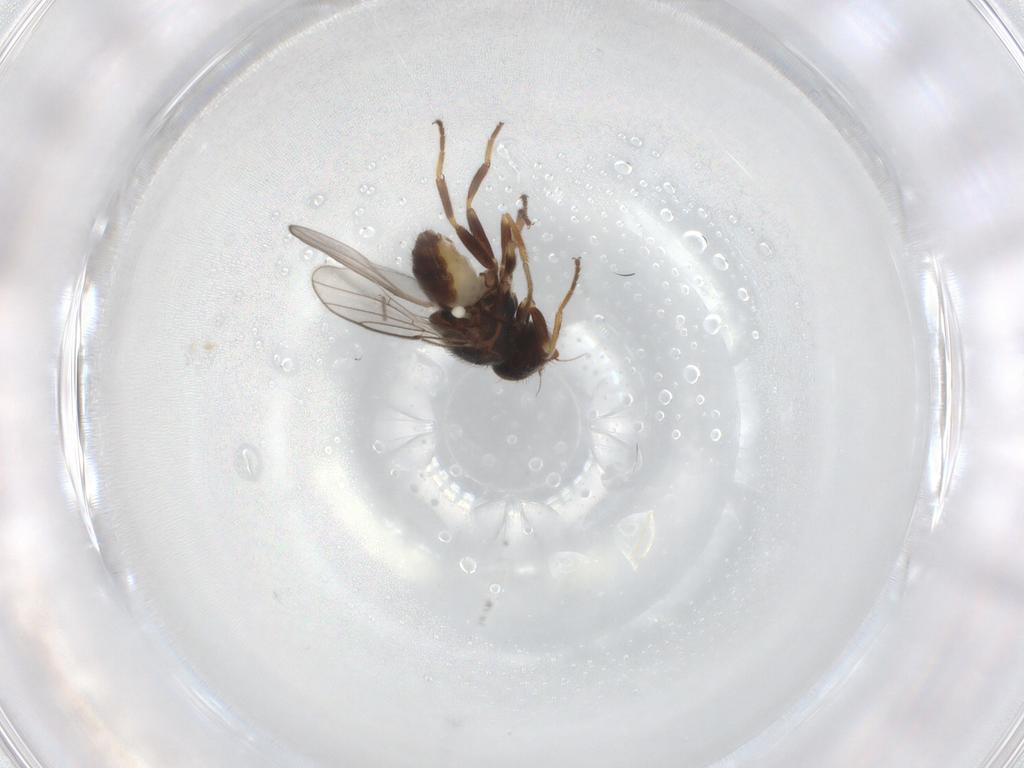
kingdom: Animalia
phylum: Arthropoda
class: Insecta
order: Diptera
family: Chloropidae
